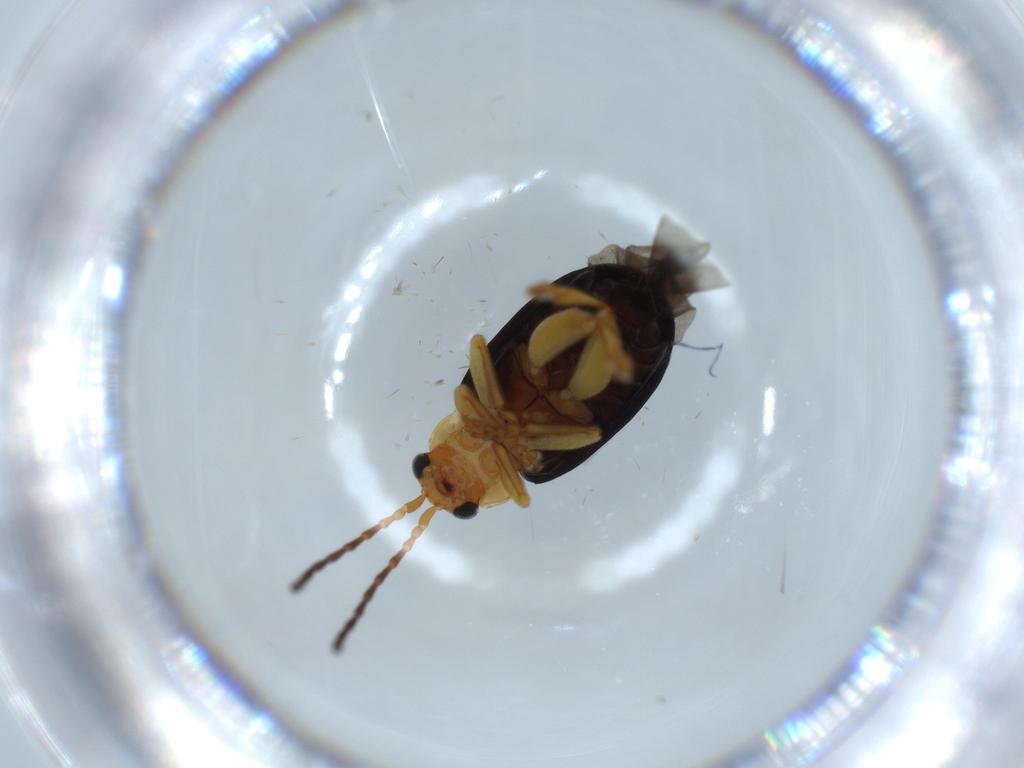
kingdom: Animalia
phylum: Arthropoda
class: Insecta
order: Coleoptera
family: Chrysomelidae
